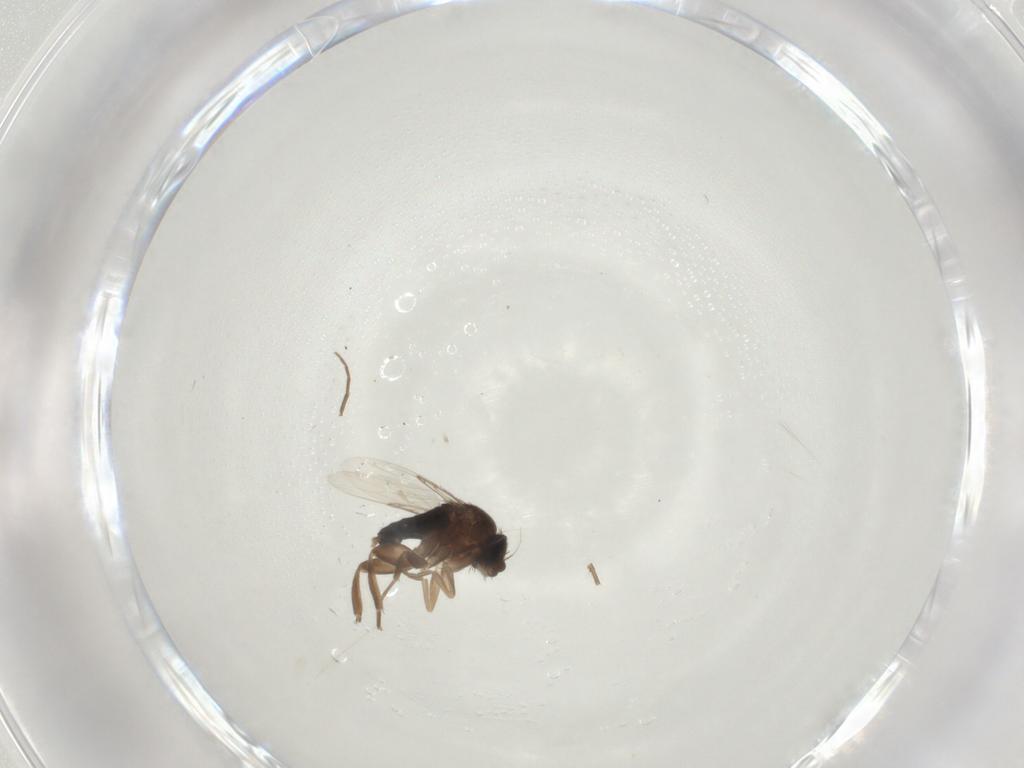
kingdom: Animalia
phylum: Arthropoda
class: Insecta
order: Diptera
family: Phoridae
